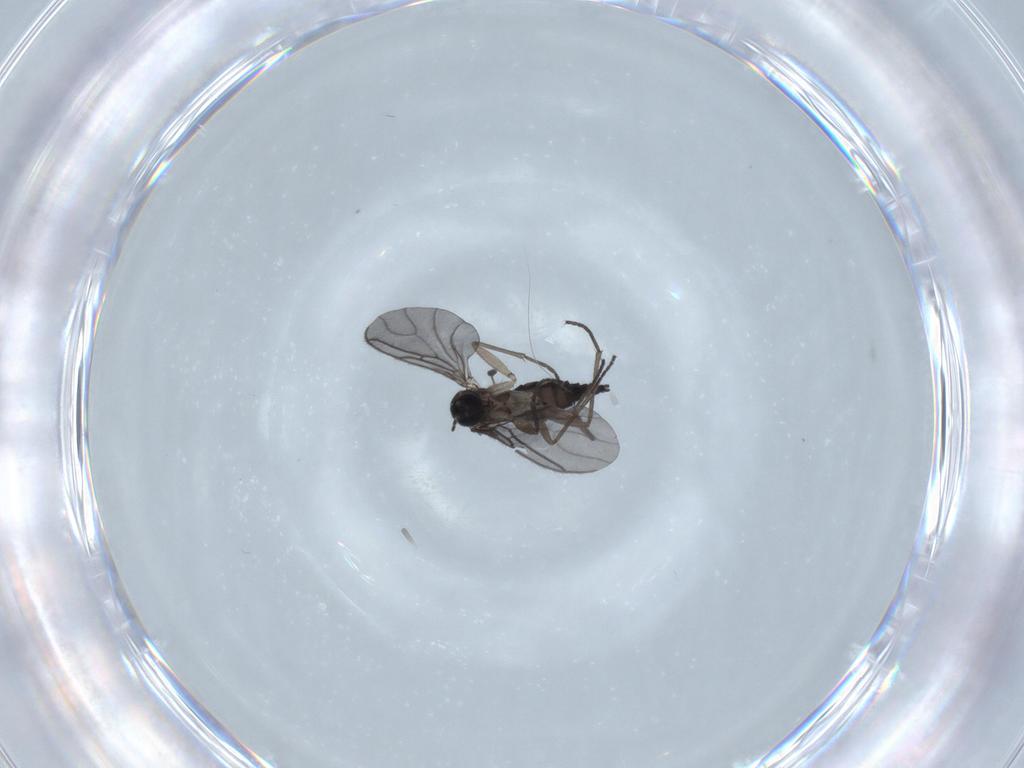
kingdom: Animalia
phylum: Arthropoda
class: Insecta
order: Diptera
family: Sciaridae
